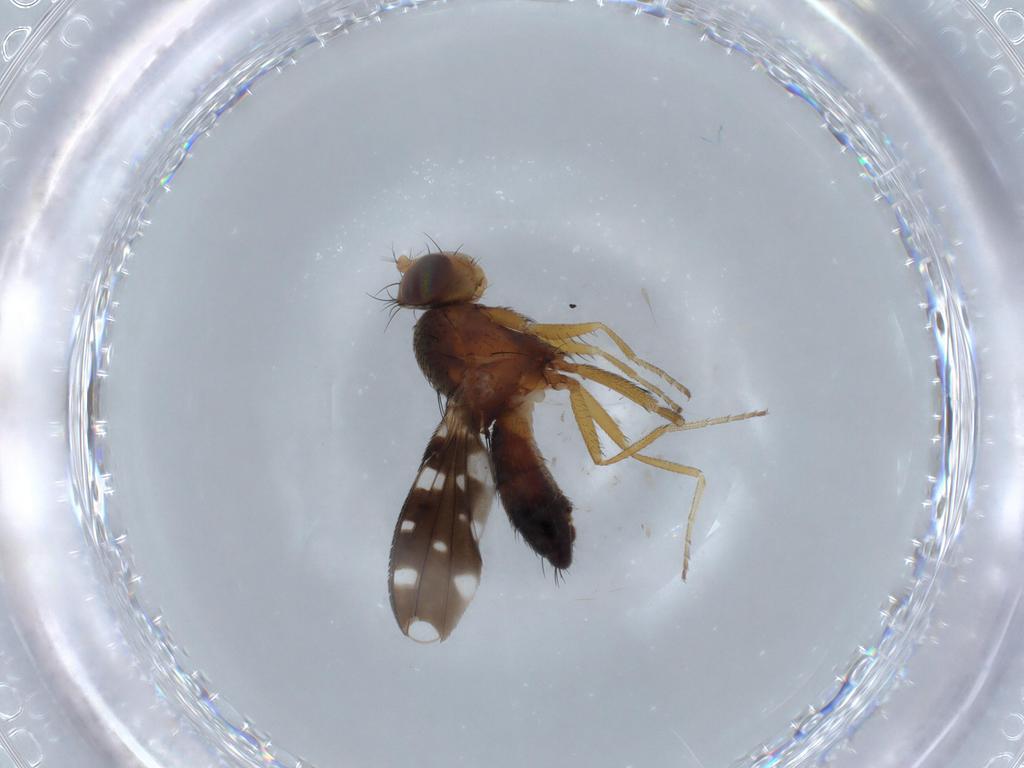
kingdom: Animalia
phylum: Arthropoda
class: Insecta
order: Diptera
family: Ephydridae
